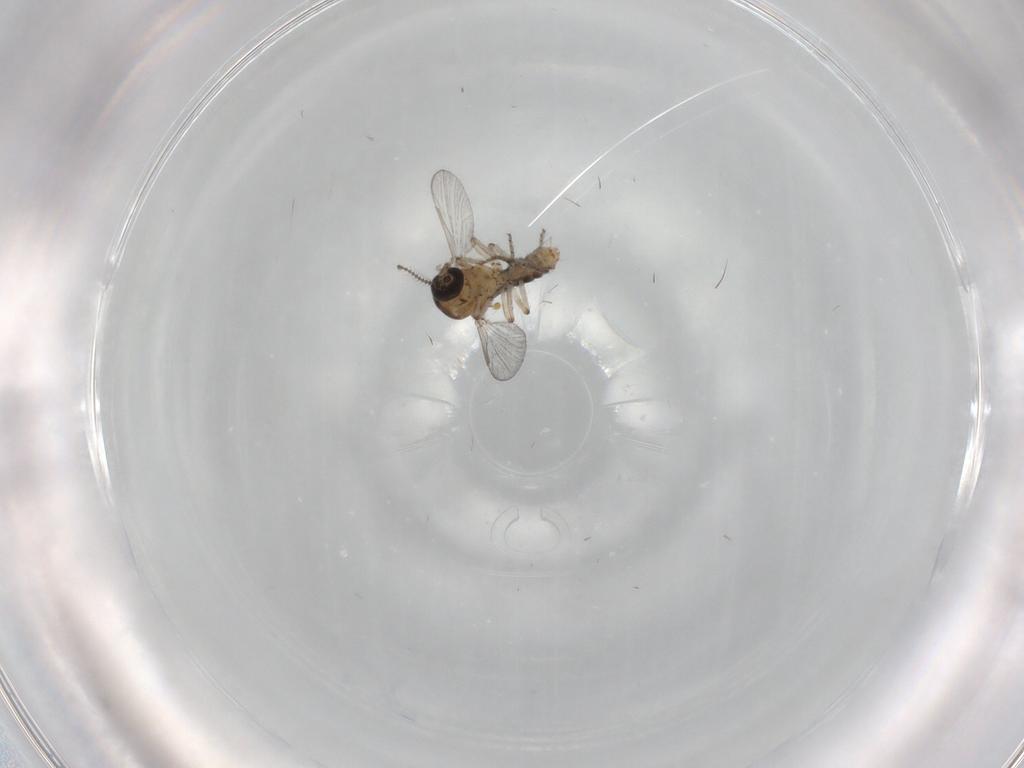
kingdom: Animalia
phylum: Arthropoda
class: Insecta
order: Diptera
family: Ceratopogonidae
